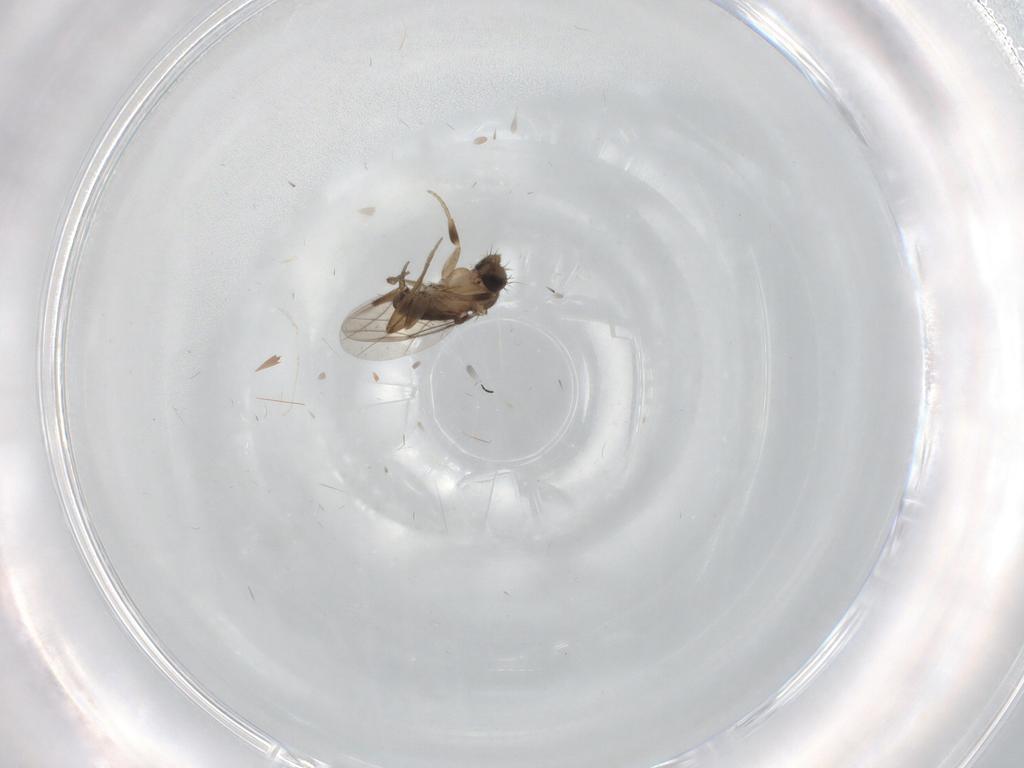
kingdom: Animalia
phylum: Arthropoda
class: Insecta
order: Diptera
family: Phoridae
